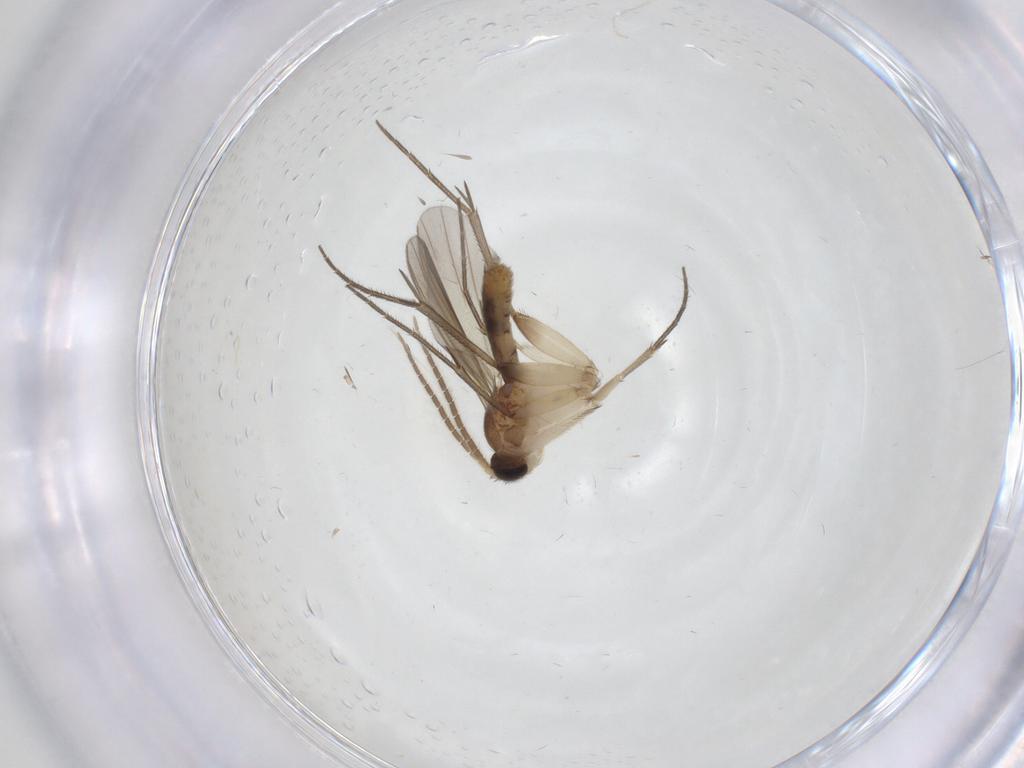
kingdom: Animalia
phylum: Arthropoda
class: Insecta
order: Diptera
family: Mycetophilidae
